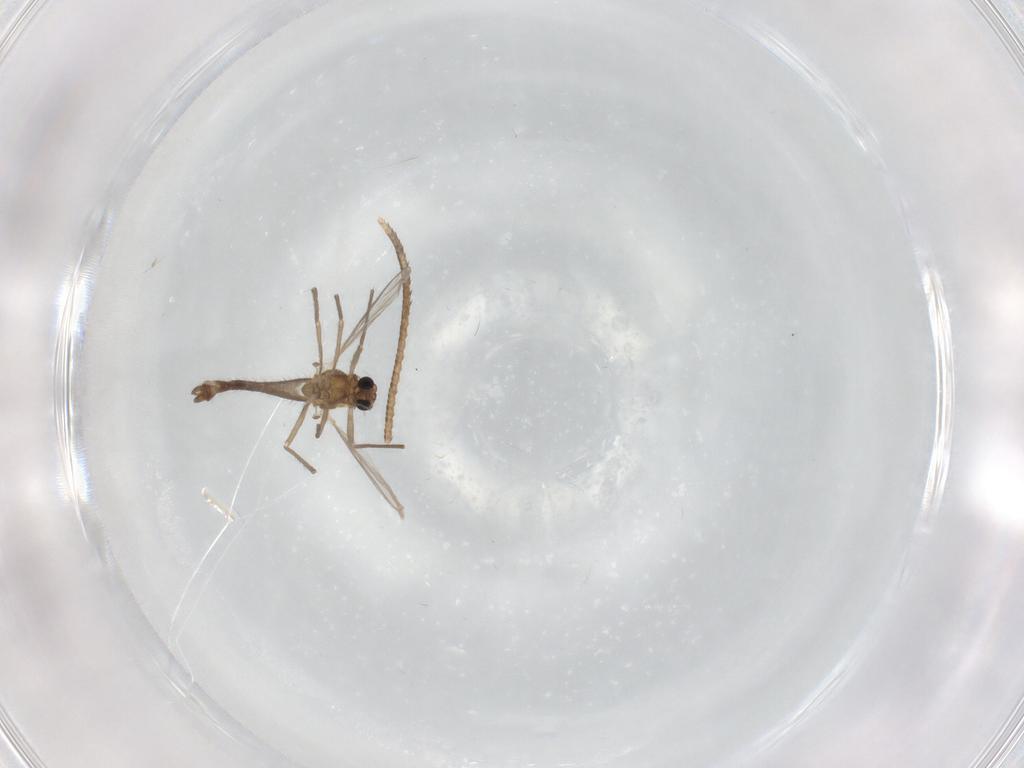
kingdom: Animalia
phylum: Arthropoda
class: Insecta
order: Diptera
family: Chironomidae
